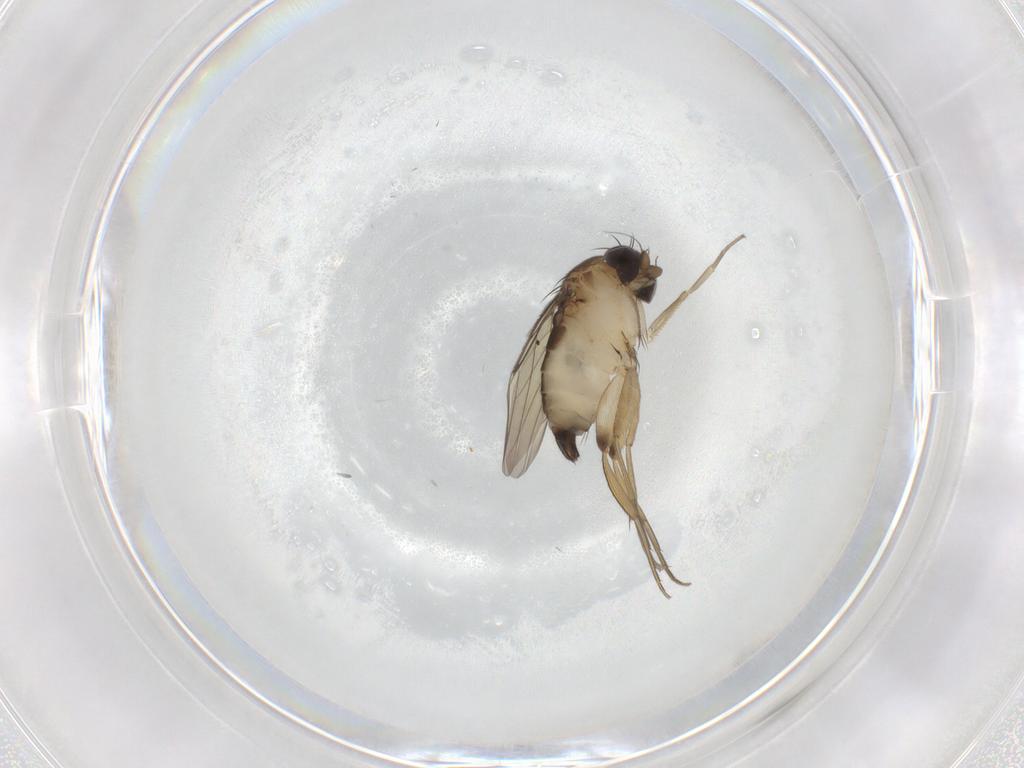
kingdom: Animalia
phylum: Arthropoda
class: Insecta
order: Diptera
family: Phoridae
